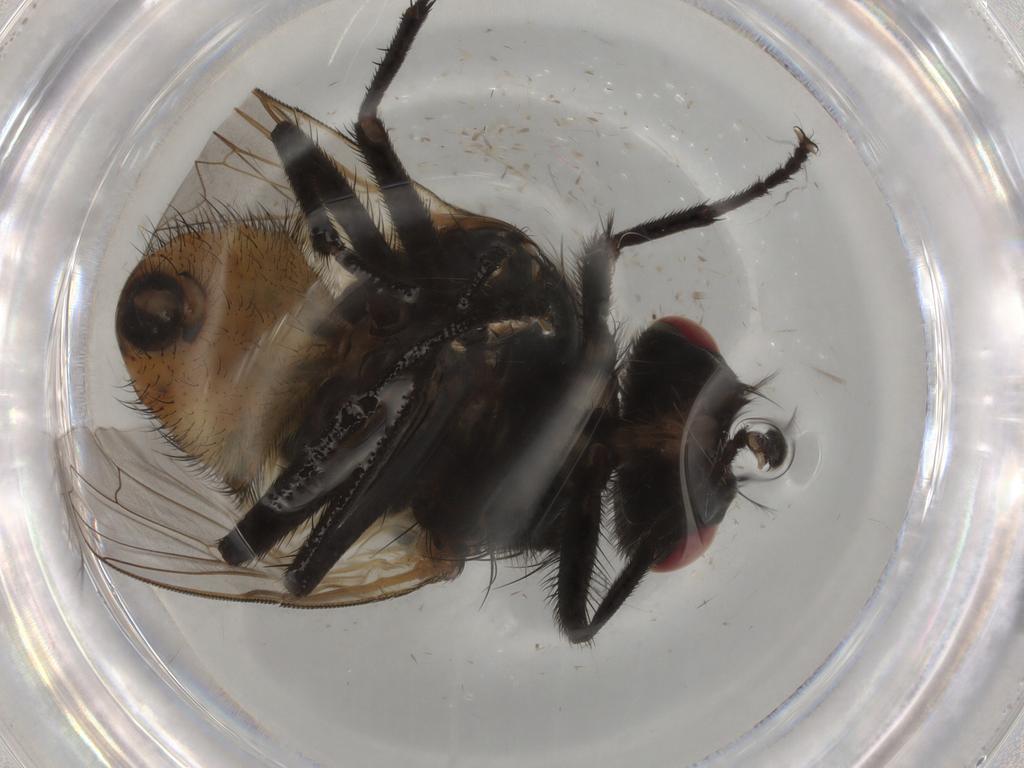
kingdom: Animalia
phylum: Arthropoda
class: Insecta
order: Diptera
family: Muscidae
